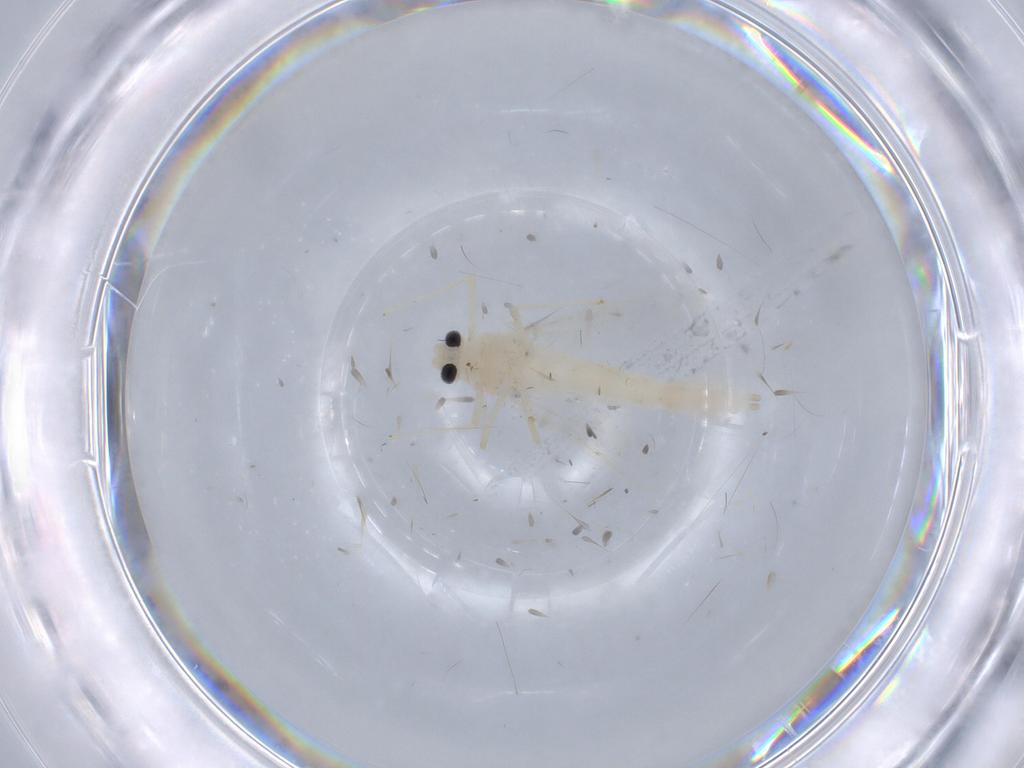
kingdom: Animalia
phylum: Arthropoda
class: Insecta
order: Diptera
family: Chironomidae
